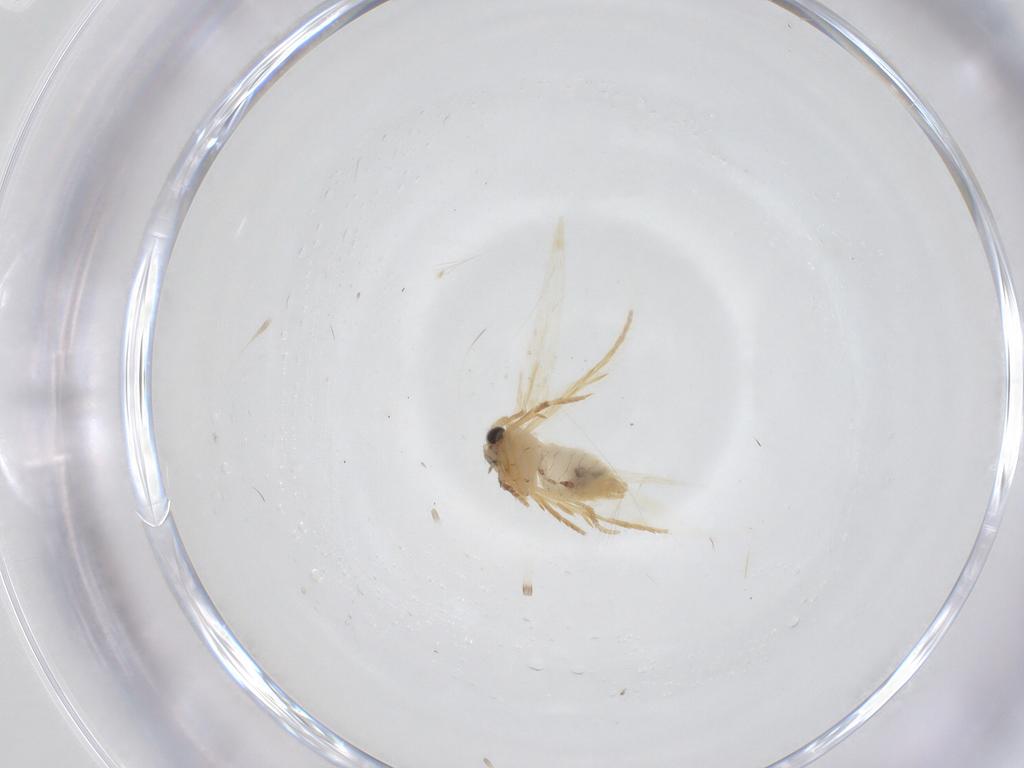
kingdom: Animalia
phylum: Arthropoda
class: Insecta
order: Lepidoptera
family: Nepticulidae
